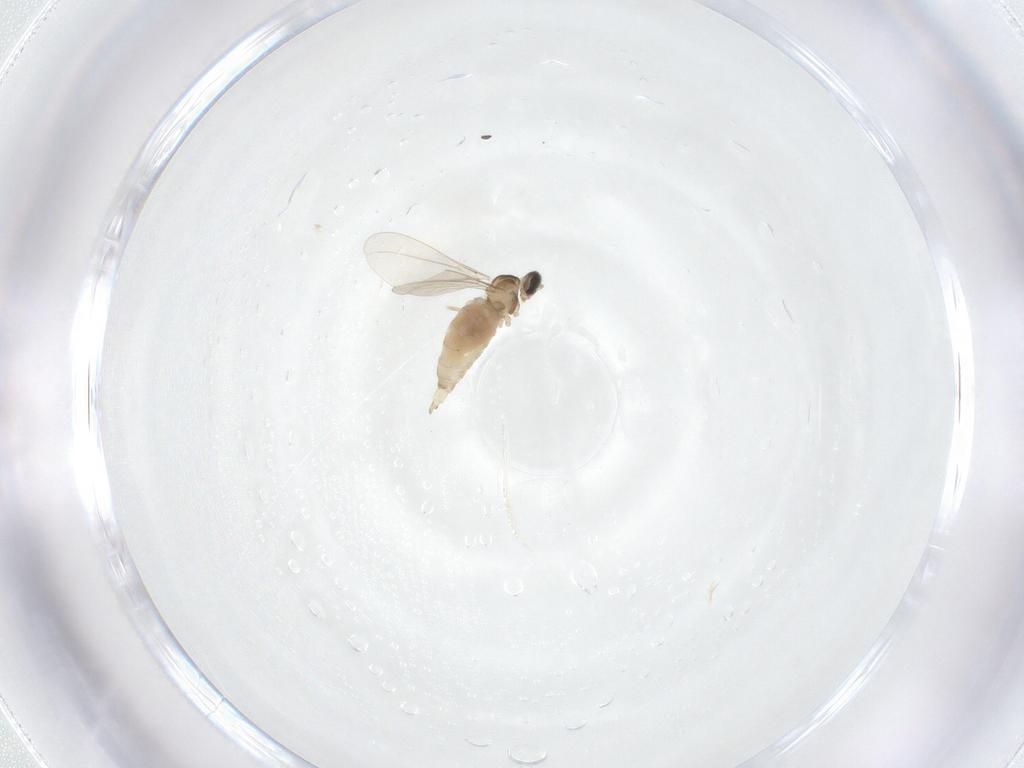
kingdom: Animalia
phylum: Arthropoda
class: Insecta
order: Diptera
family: Cecidomyiidae
